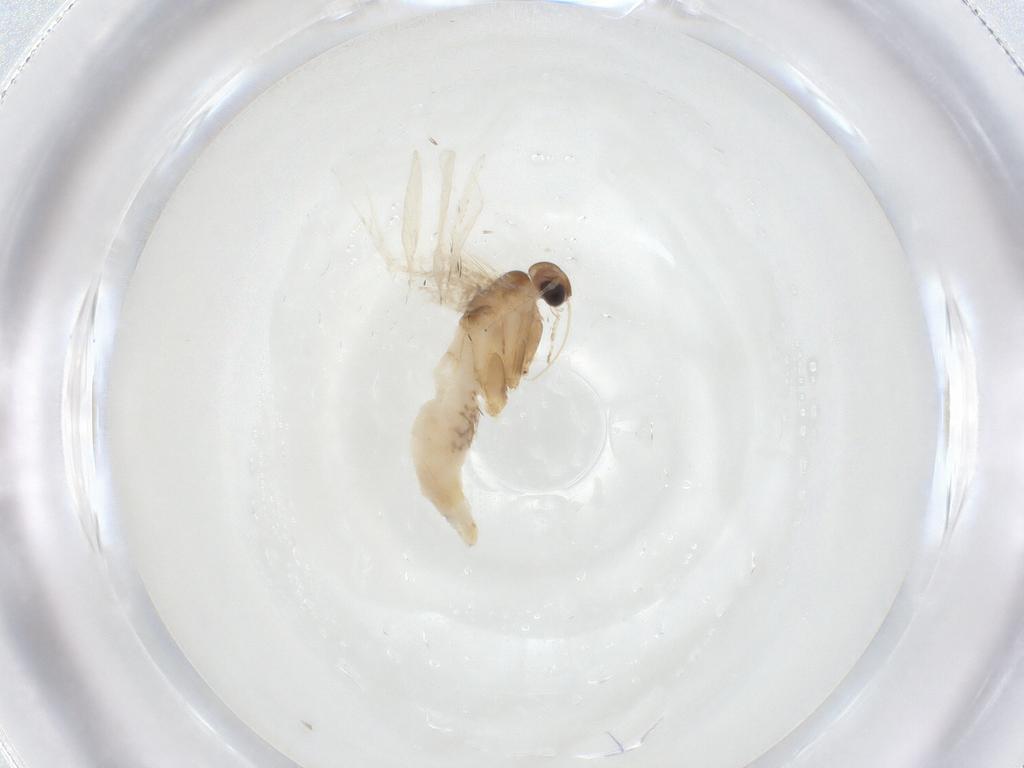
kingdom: Animalia
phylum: Arthropoda
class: Insecta
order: Lepidoptera
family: Crambidae
